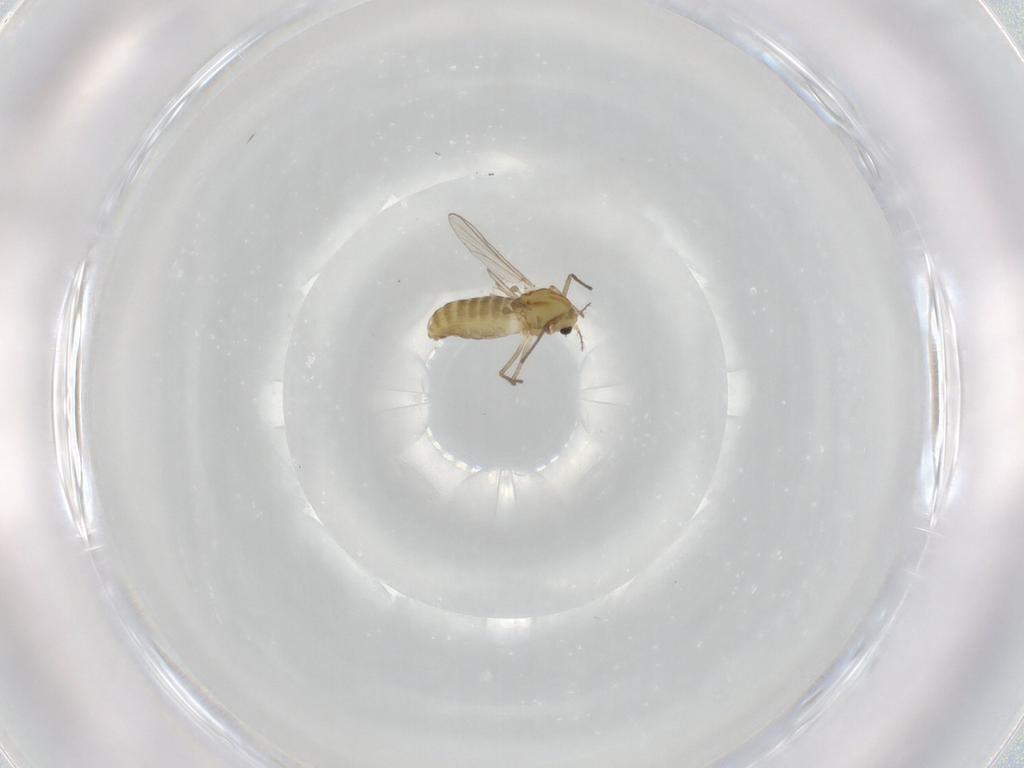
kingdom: Animalia
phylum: Arthropoda
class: Insecta
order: Diptera
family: Chironomidae
